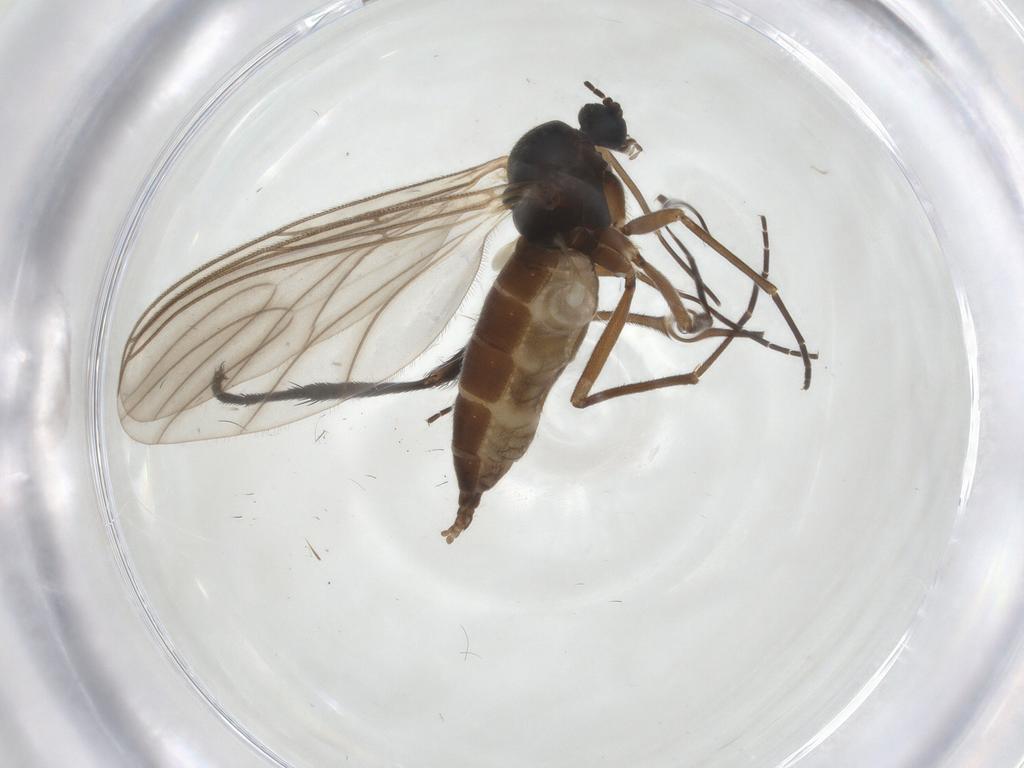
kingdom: Animalia
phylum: Arthropoda
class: Insecta
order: Diptera
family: Sciaridae
